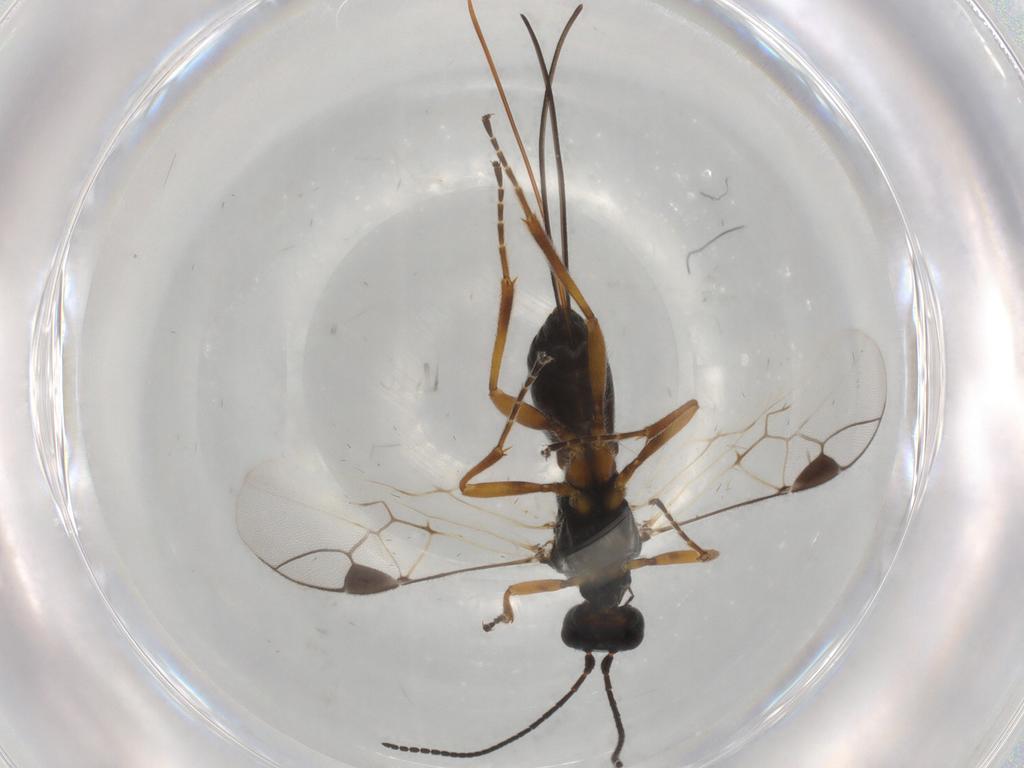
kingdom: Animalia
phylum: Arthropoda
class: Insecta
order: Hymenoptera
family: Braconidae
